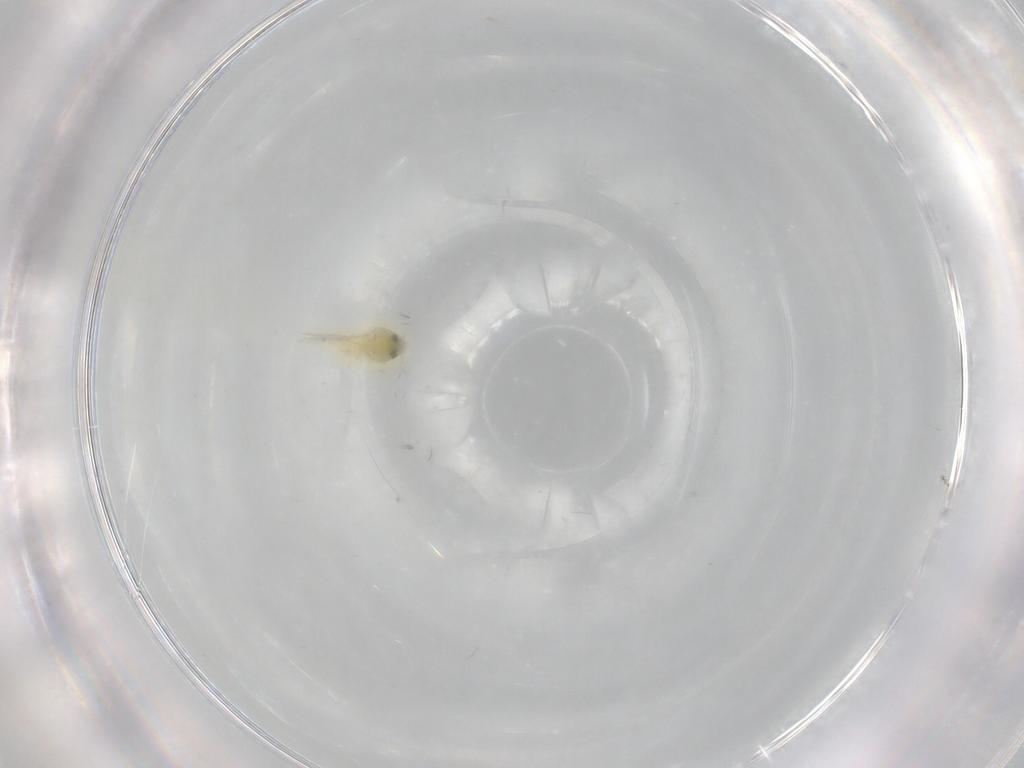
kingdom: Animalia
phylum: Arthropoda
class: Insecta
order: Hemiptera
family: Aleyrodidae
